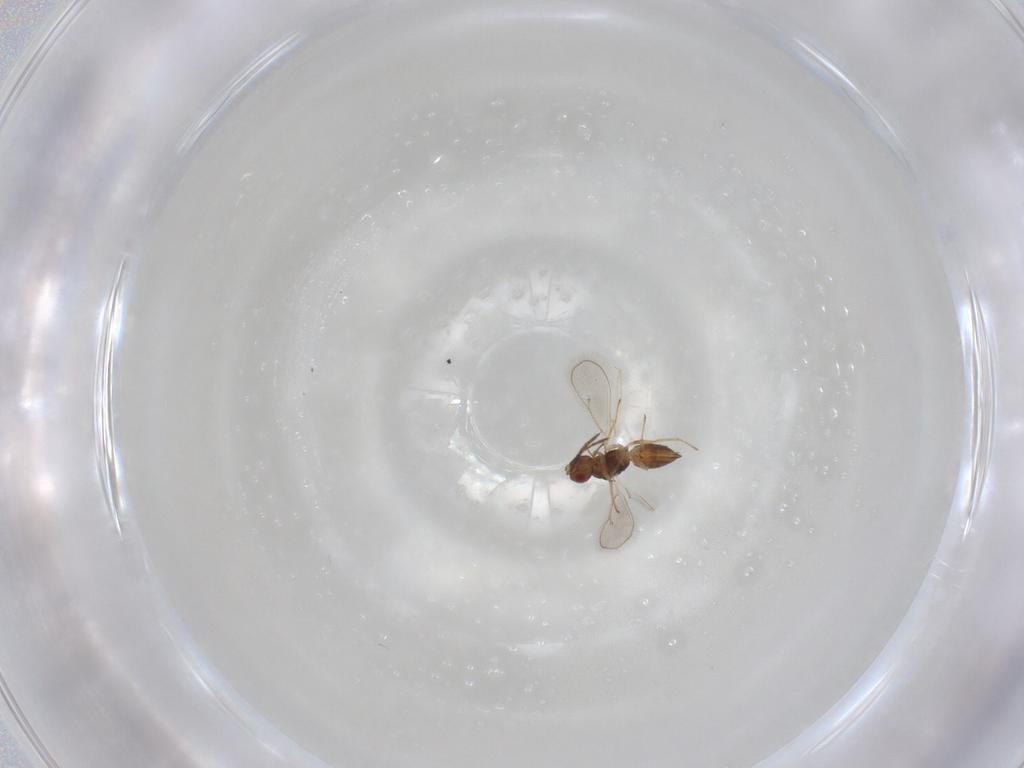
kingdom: Animalia
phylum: Arthropoda
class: Insecta
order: Hymenoptera
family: Eulophidae
